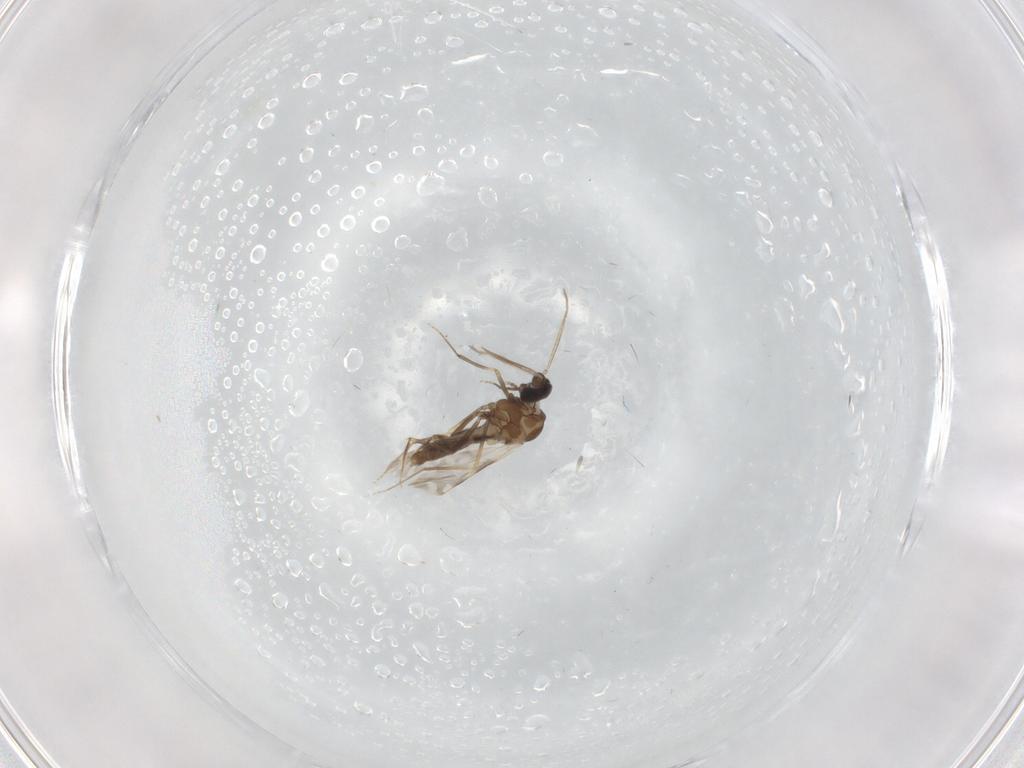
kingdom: Animalia
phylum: Arthropoda
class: Insecta
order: Diptera
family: Ceratopogonidae
